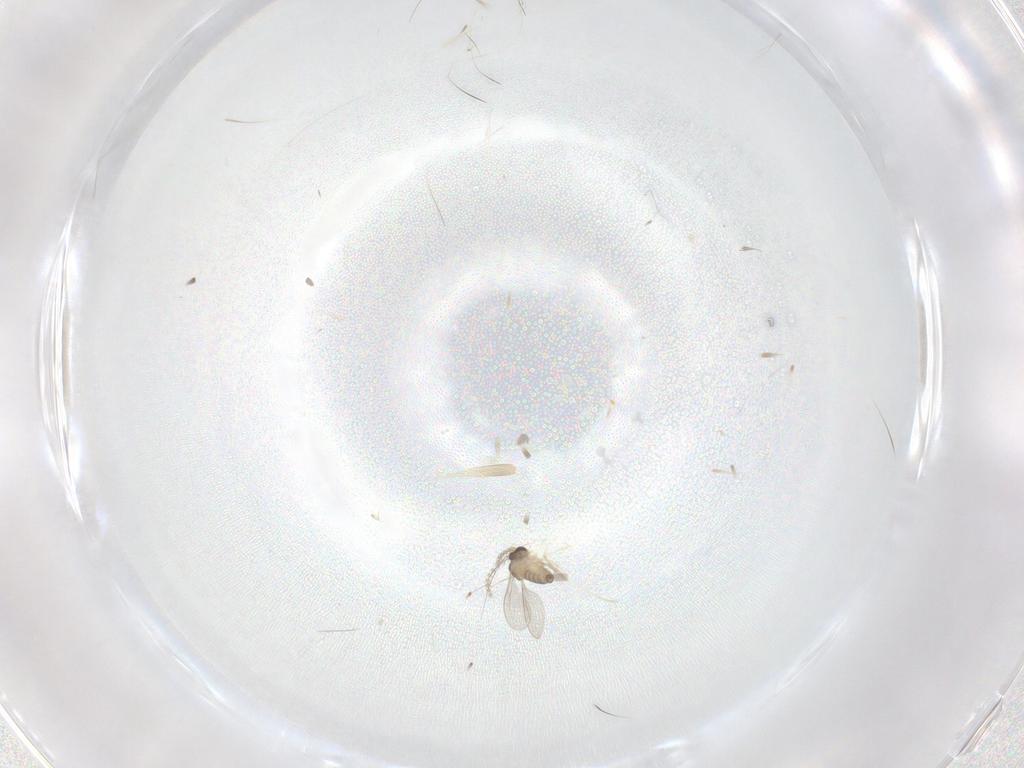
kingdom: Animalia
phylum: Arthropoda
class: Insecta
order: Diptera
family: Cecidomyiidae
